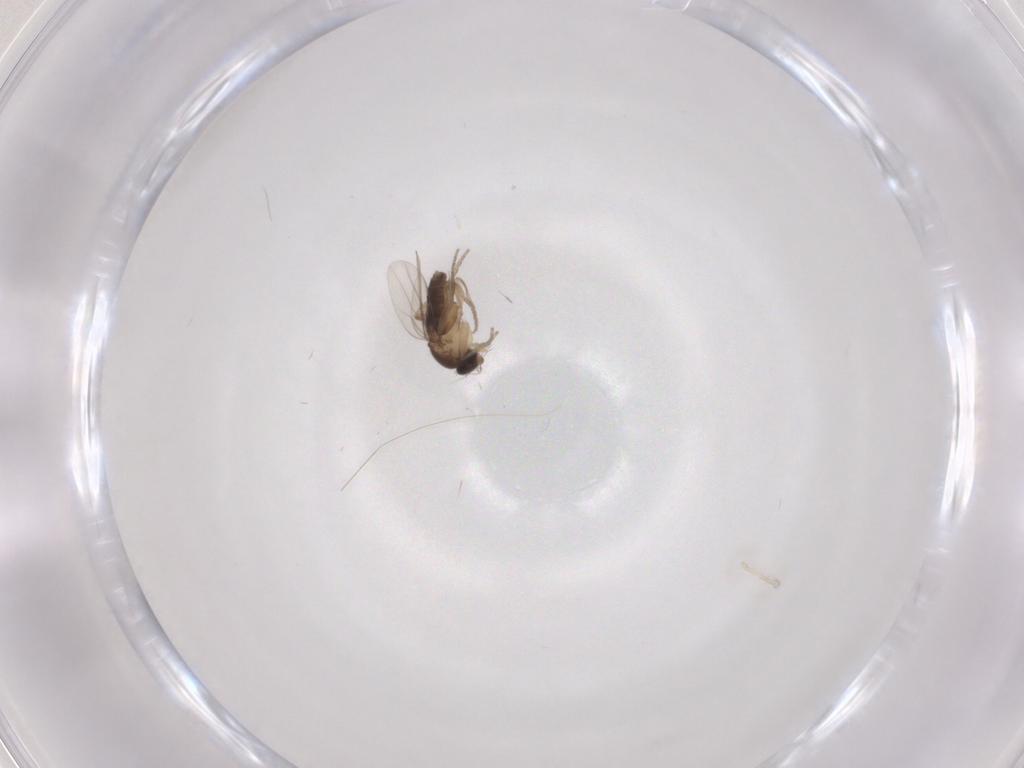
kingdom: Animalia
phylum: Arthropoda
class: Insecta
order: Diptera
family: Phoridae
